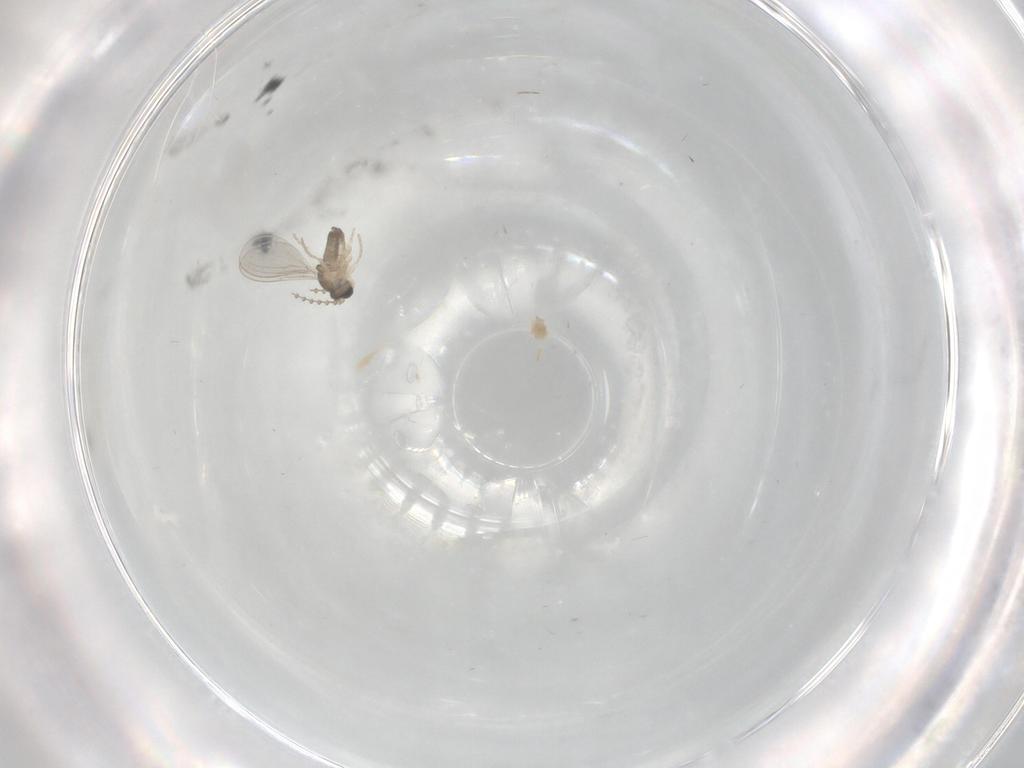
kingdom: Animalia
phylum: Arthropoda
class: Insecta
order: Diptera
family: Cecidomyiidae
